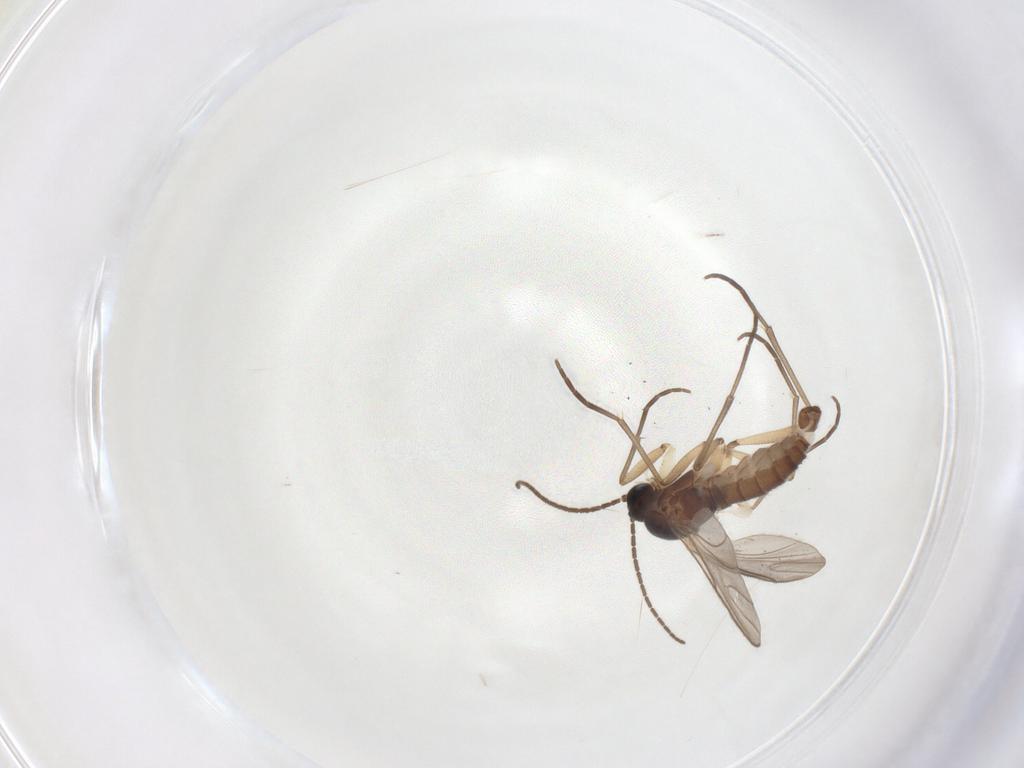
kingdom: Animalia
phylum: Arthropoda
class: Insecta
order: Diptera
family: Sciaridae
